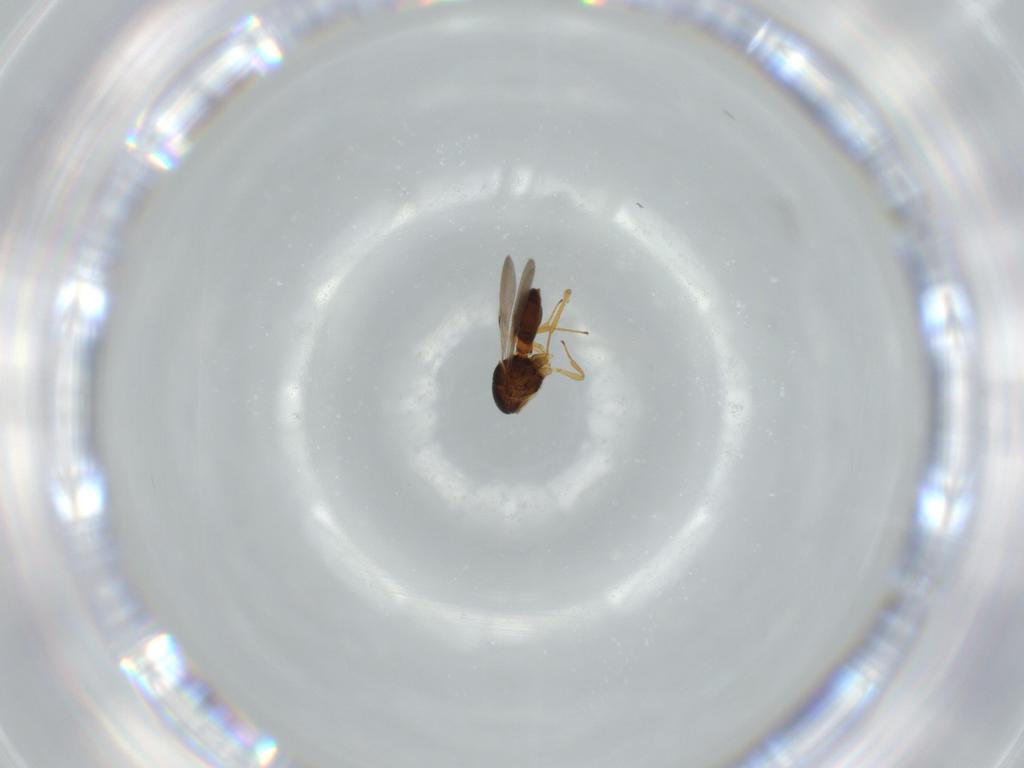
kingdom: Animalia
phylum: Arthropoda
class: Insecta
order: Hymenoptera
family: Scelionidae
